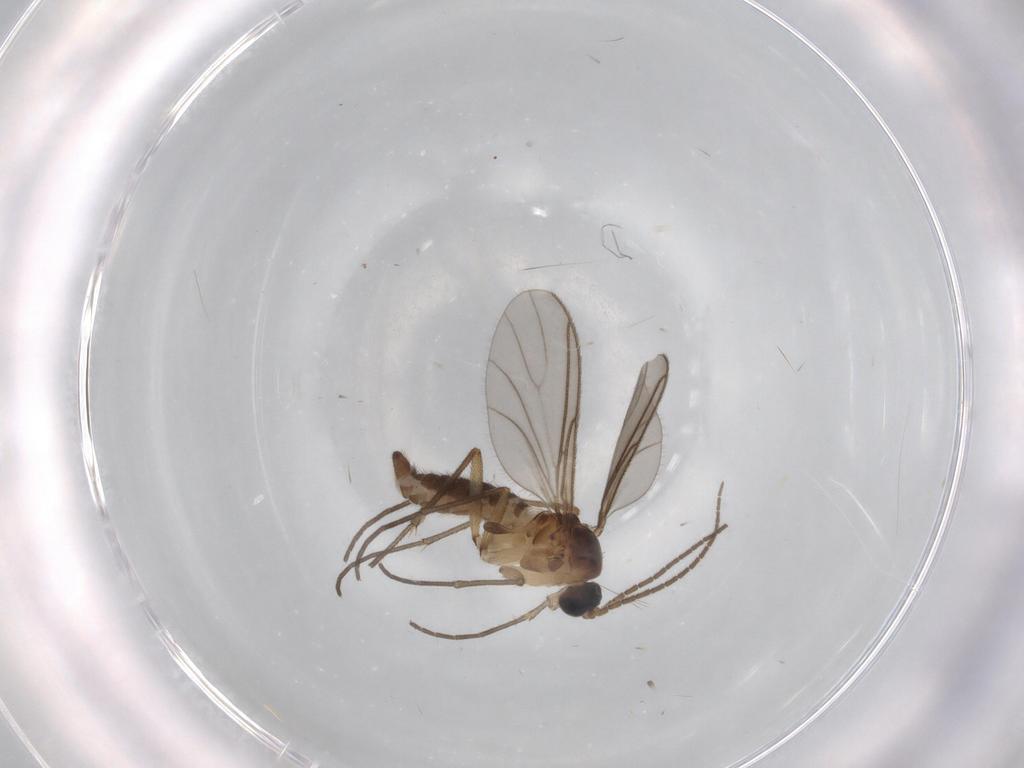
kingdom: Animalia
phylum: Arthropoda
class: Insecta
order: Diptera
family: Sciaridae
